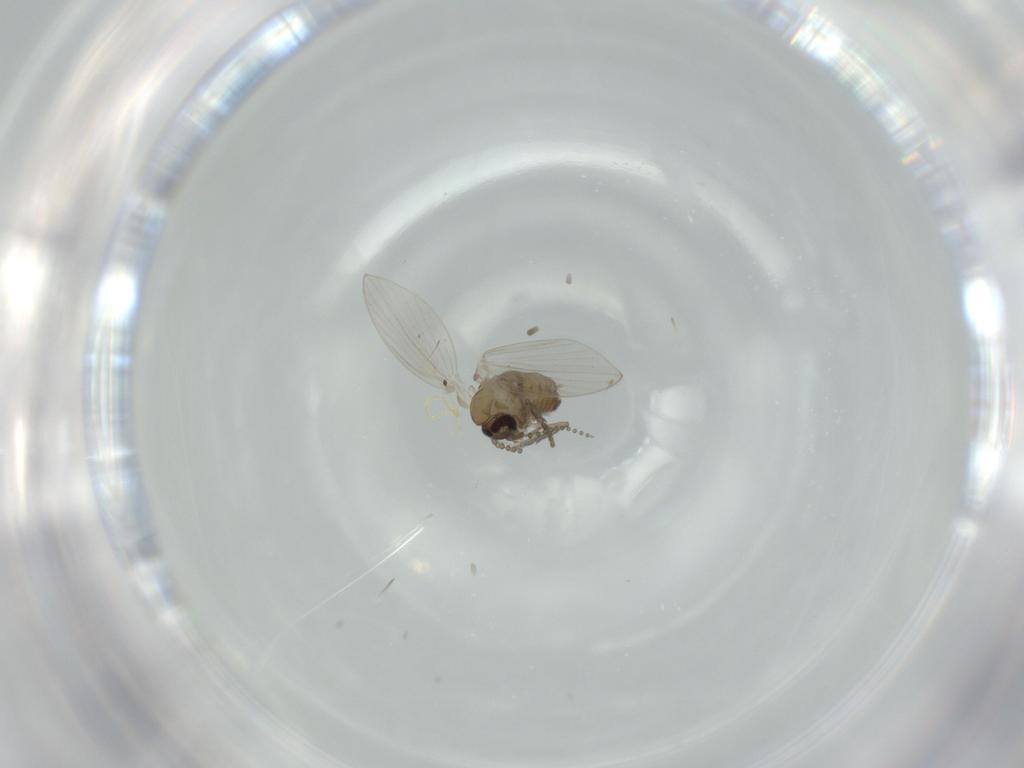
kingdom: Animalia
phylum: Arthropoda
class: Insecta
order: Diptera
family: Psychodidae
